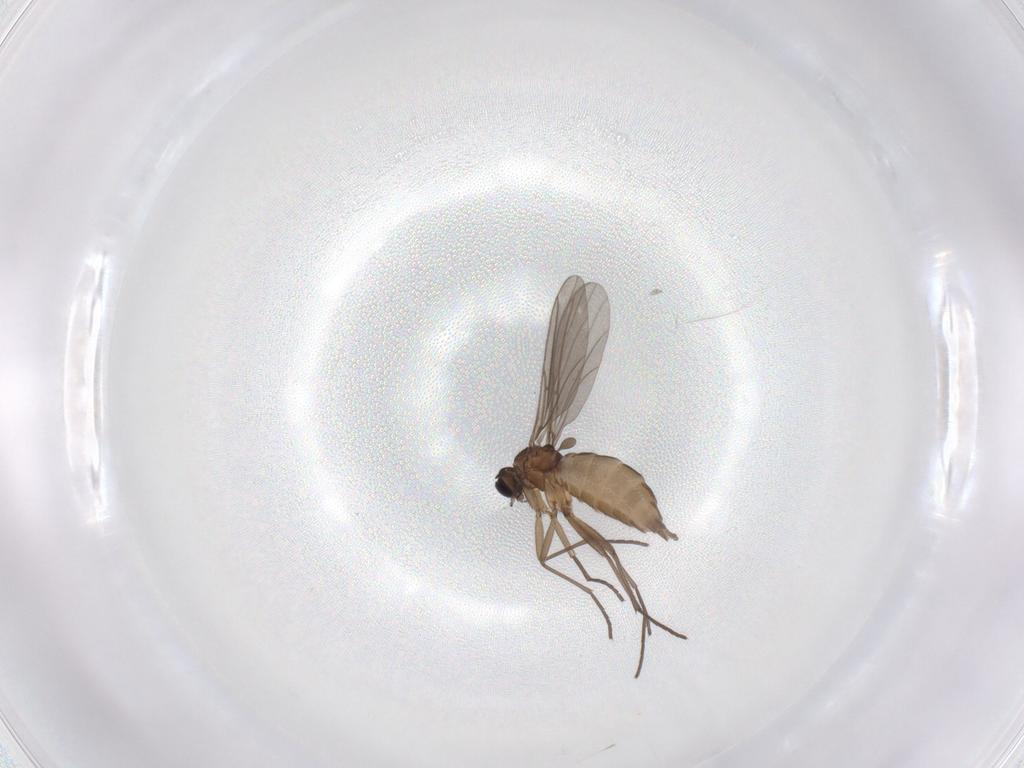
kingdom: Animalia
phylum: Arthropoda
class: Insecta
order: Diptera
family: Sciaridae
